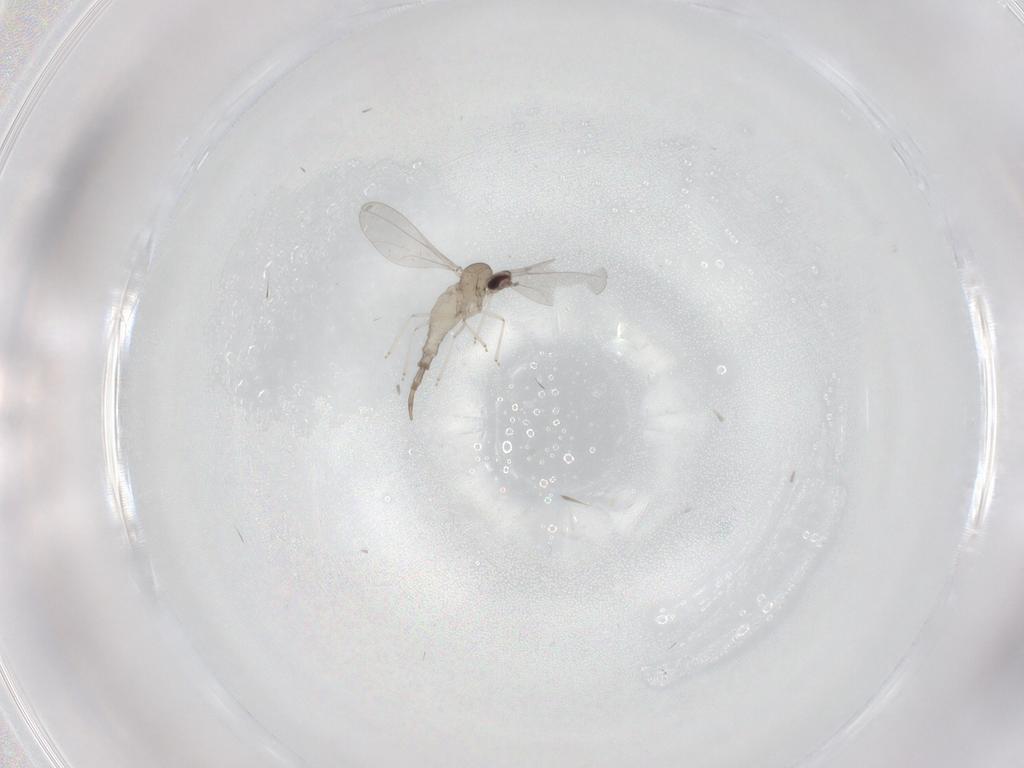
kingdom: Animalia
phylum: Arthropoda
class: Insecta
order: Diptera
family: Cecidomyiidae
